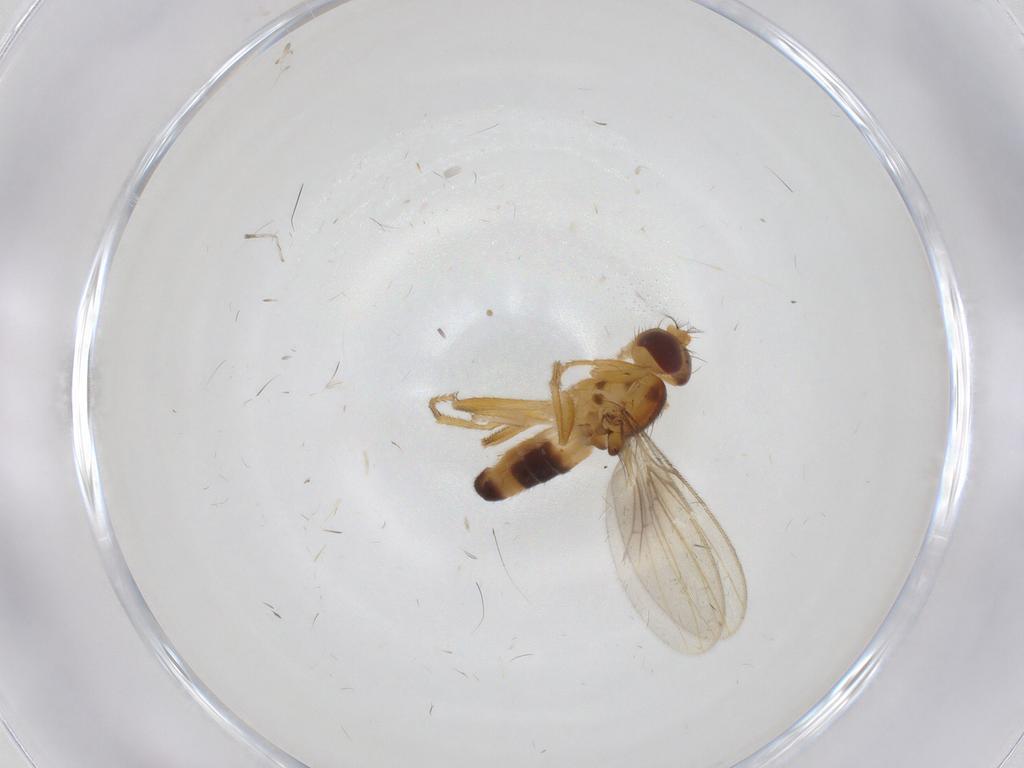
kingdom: Animalia
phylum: Arthropoda
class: Insecta
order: Diptera
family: Periscelididae
